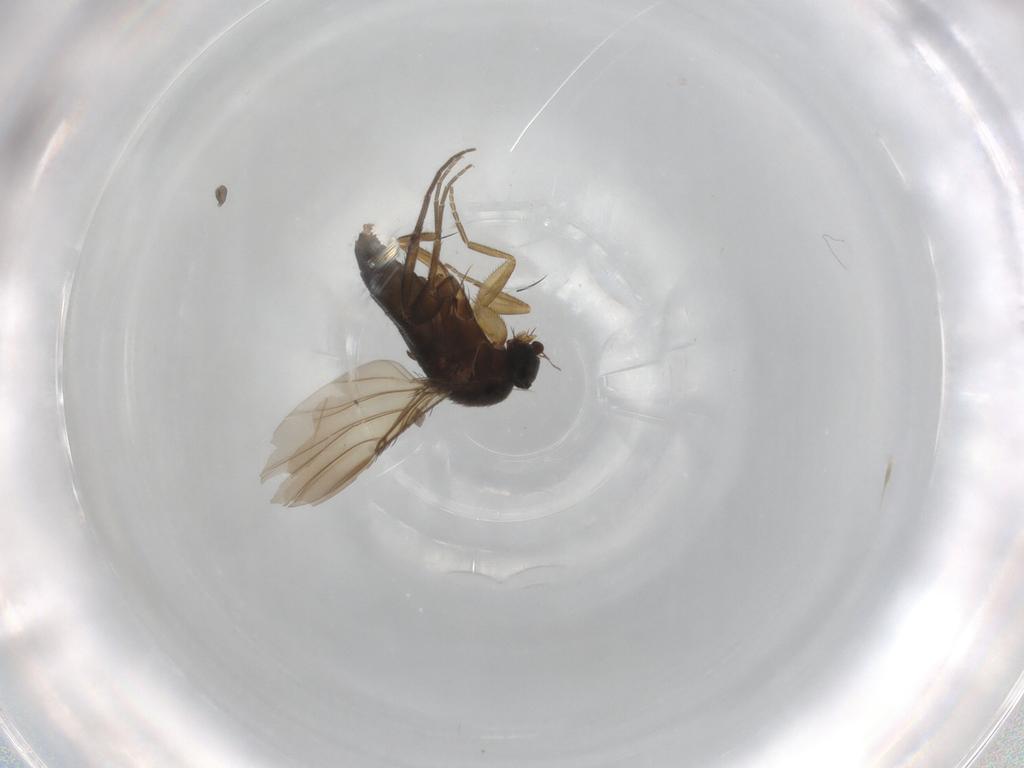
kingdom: Animalia
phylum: Arthropoda
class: Insecta
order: Diptera
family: Phoridae
